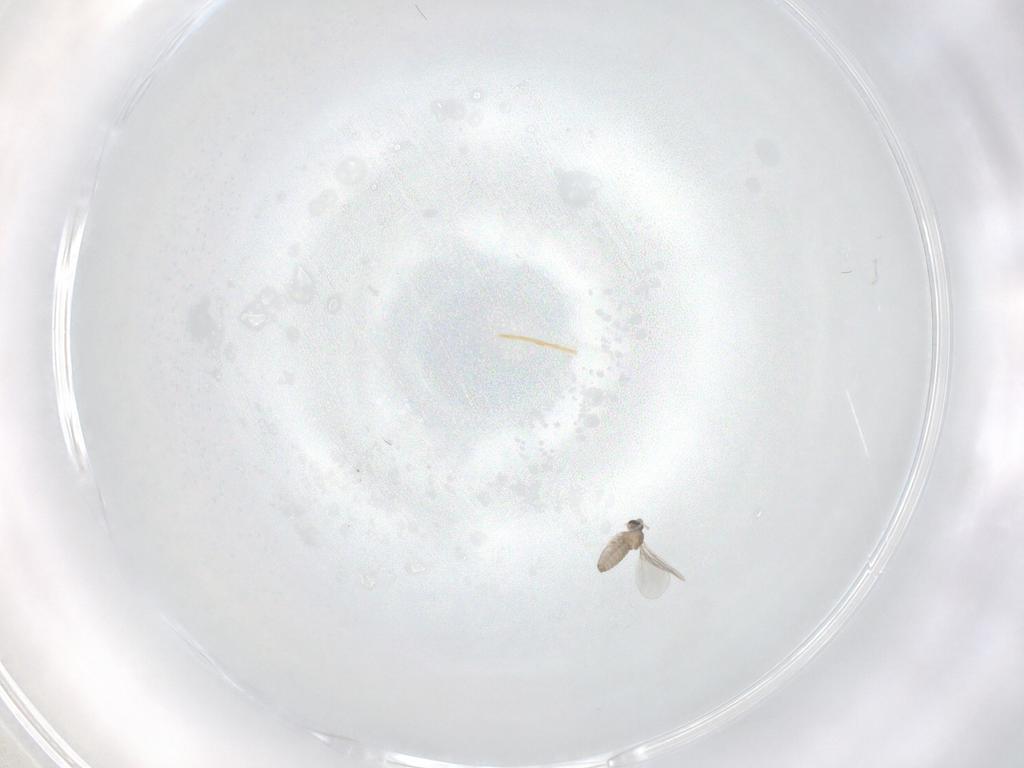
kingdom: Animalia
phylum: Arthropoda
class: Insecta
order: Diptera
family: Cecidomyiidae
